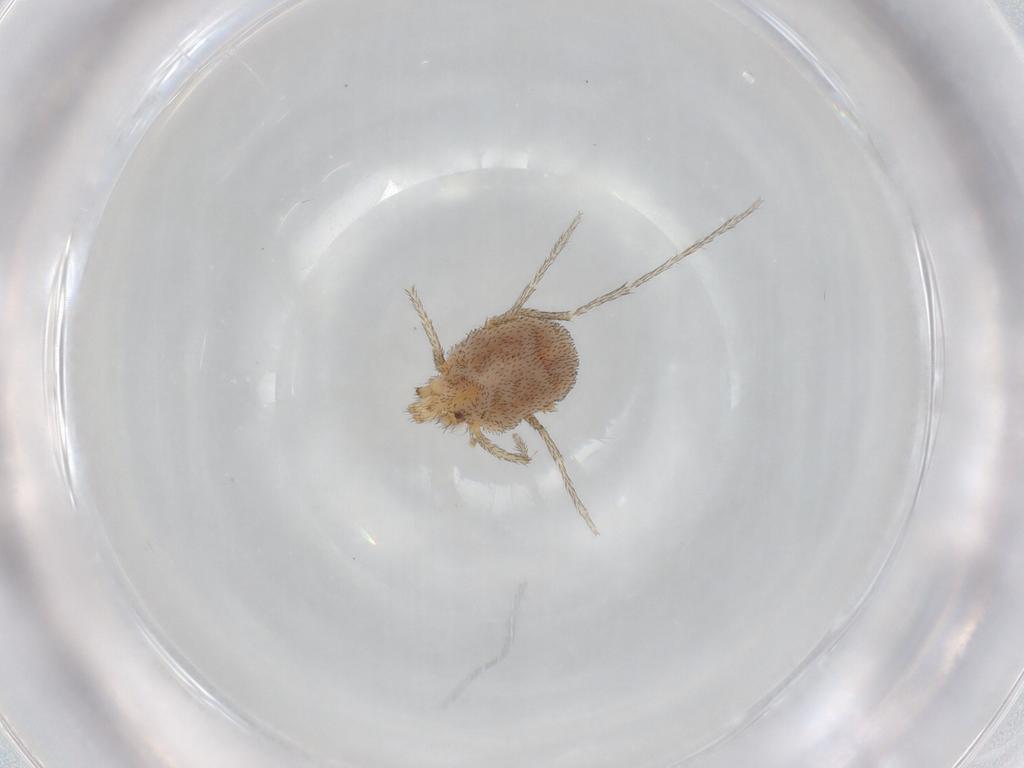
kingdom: Animalia
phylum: Arthropoda
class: Arachnida
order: Trombidiformes
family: Erythraeidae
